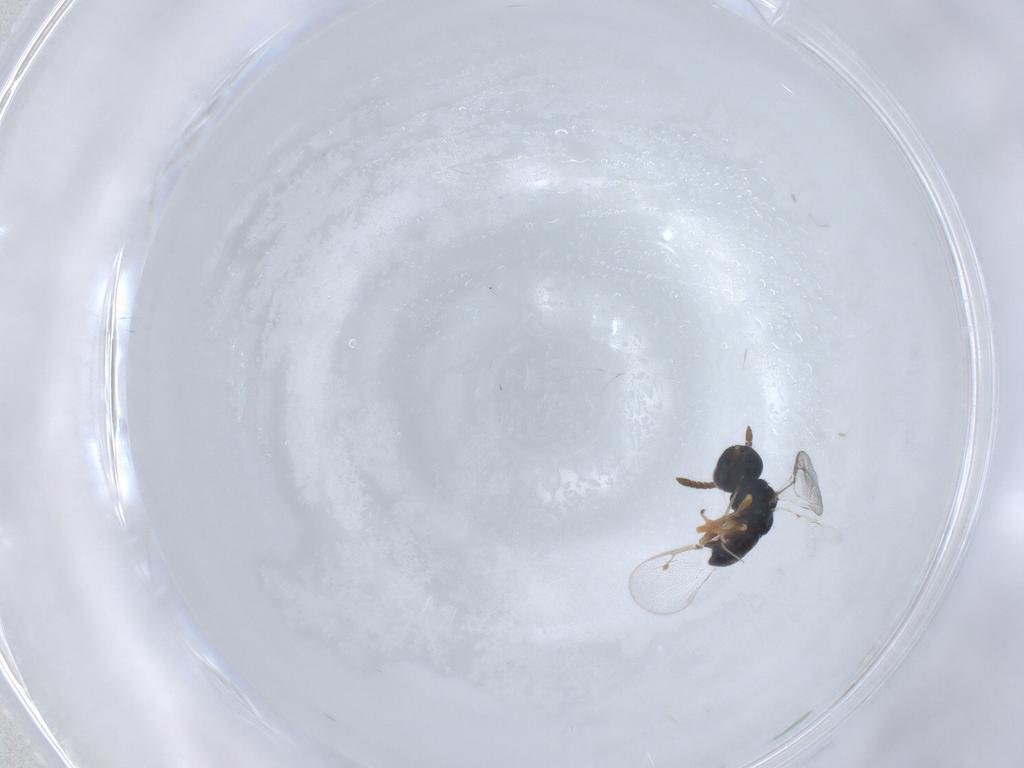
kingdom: Animalia
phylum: Arthropoda
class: Insecta
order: Hymenoptera
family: Pteromalidae
